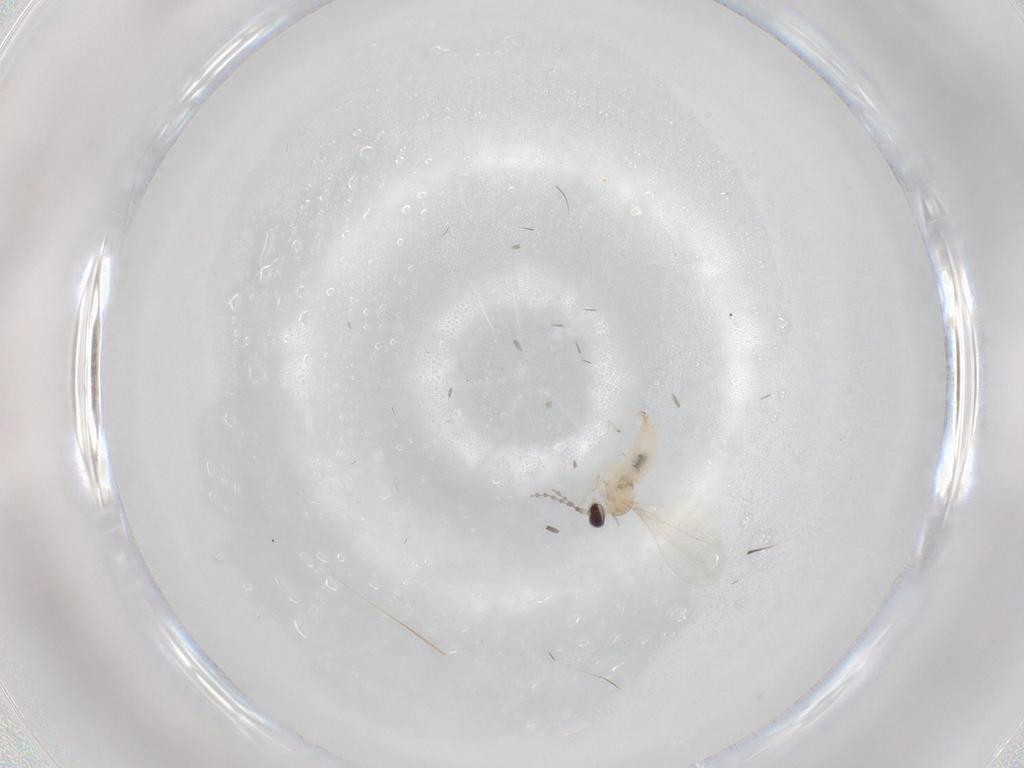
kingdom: Animalia
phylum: Arthropoda
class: Insecta
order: Diptera
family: Cecidomyiidae
